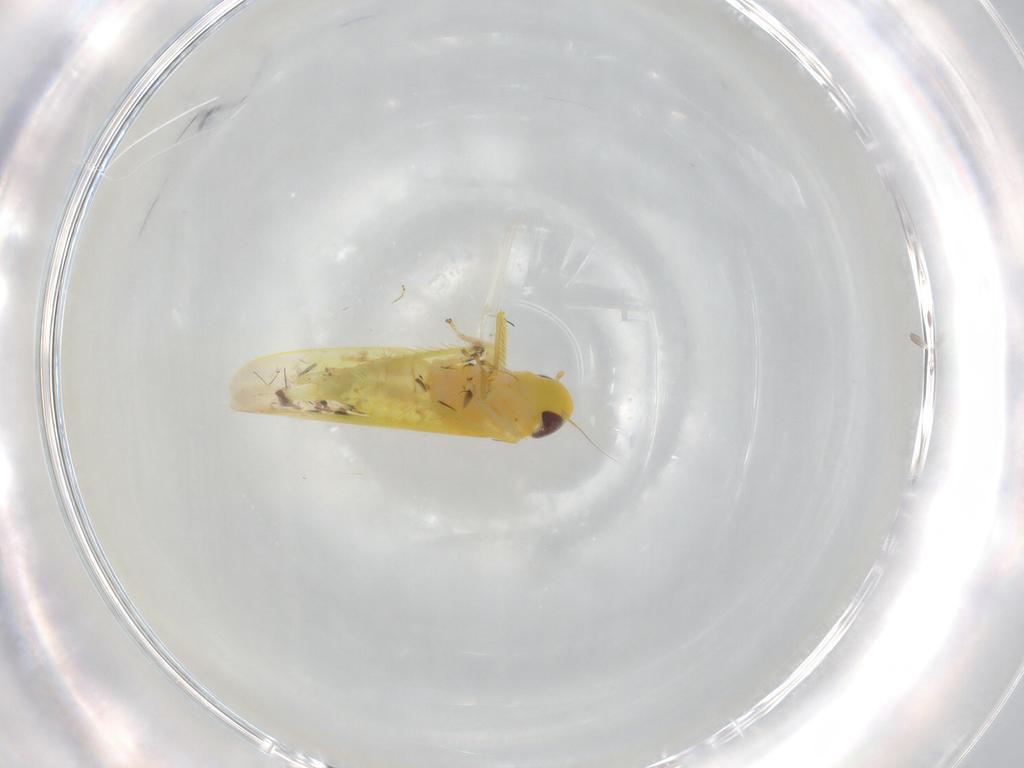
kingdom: Animalia
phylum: Arthropoda
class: Insecta
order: Hemiptera
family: Cicadellidae
